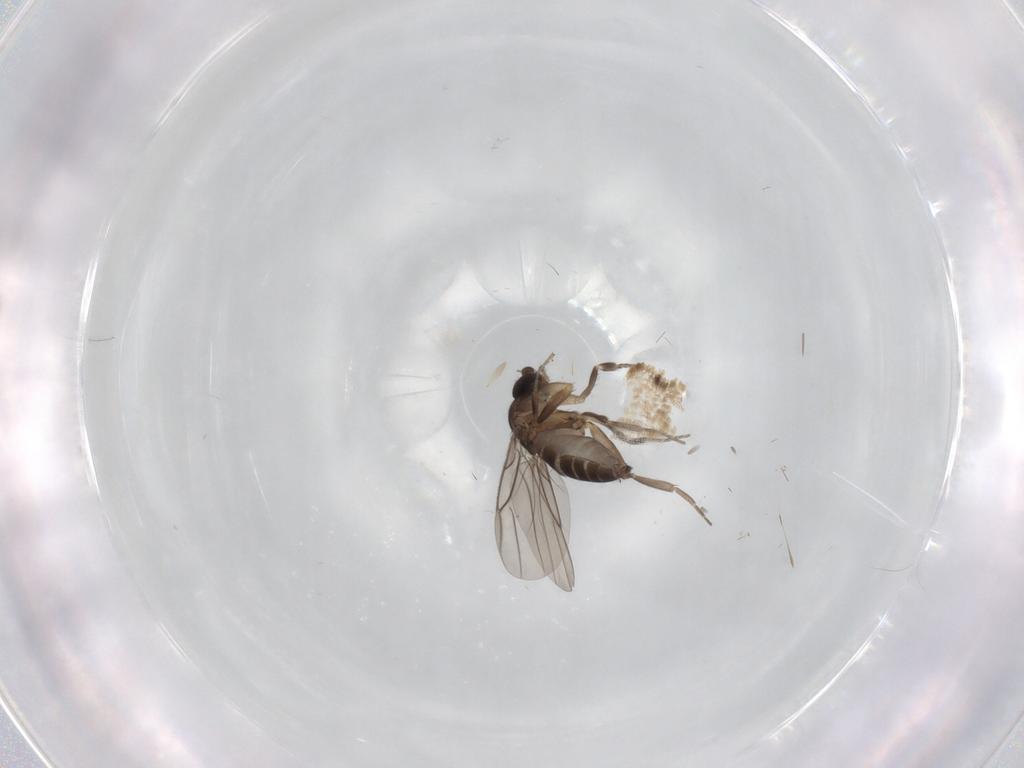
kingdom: Animalia
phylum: Arthropoda
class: Insecta
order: Diptera
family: Phoridae
